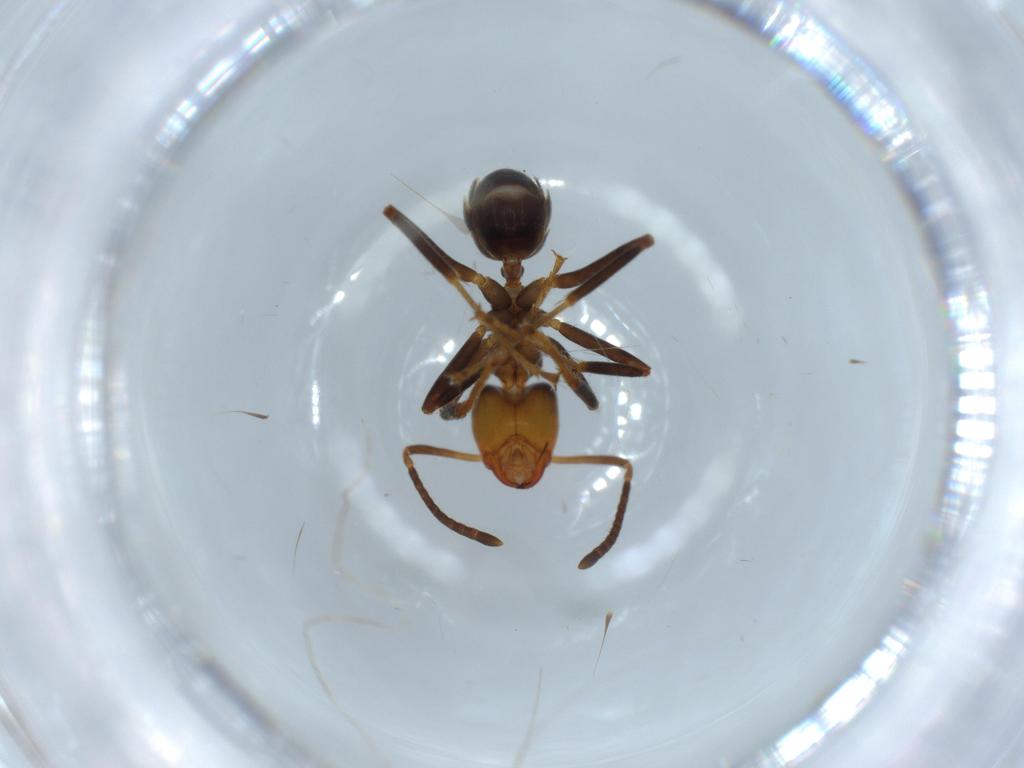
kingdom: Animalia
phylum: Arthropoda
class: Insecta
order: Hymenoptera
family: Formicidae
